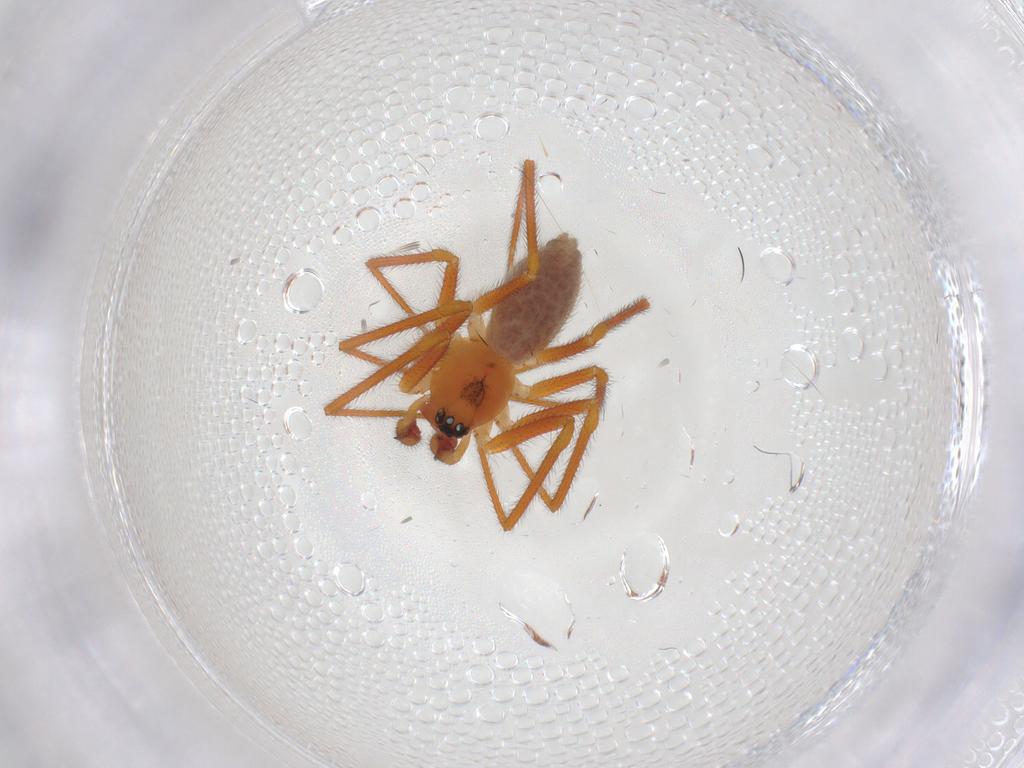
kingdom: Animalia
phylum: Arthropoda
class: Arachnida
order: Araneae
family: Linyphiidae
